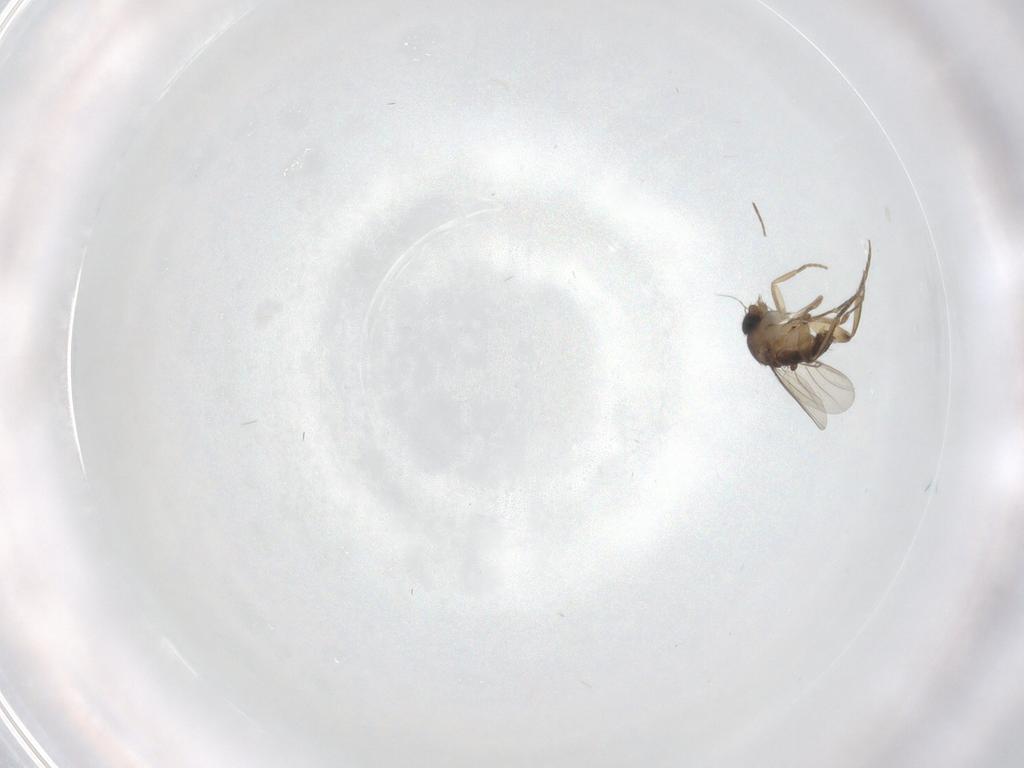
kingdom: Animalia
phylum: Arthropoda
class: Insecta
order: Diptera
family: Phoridae
